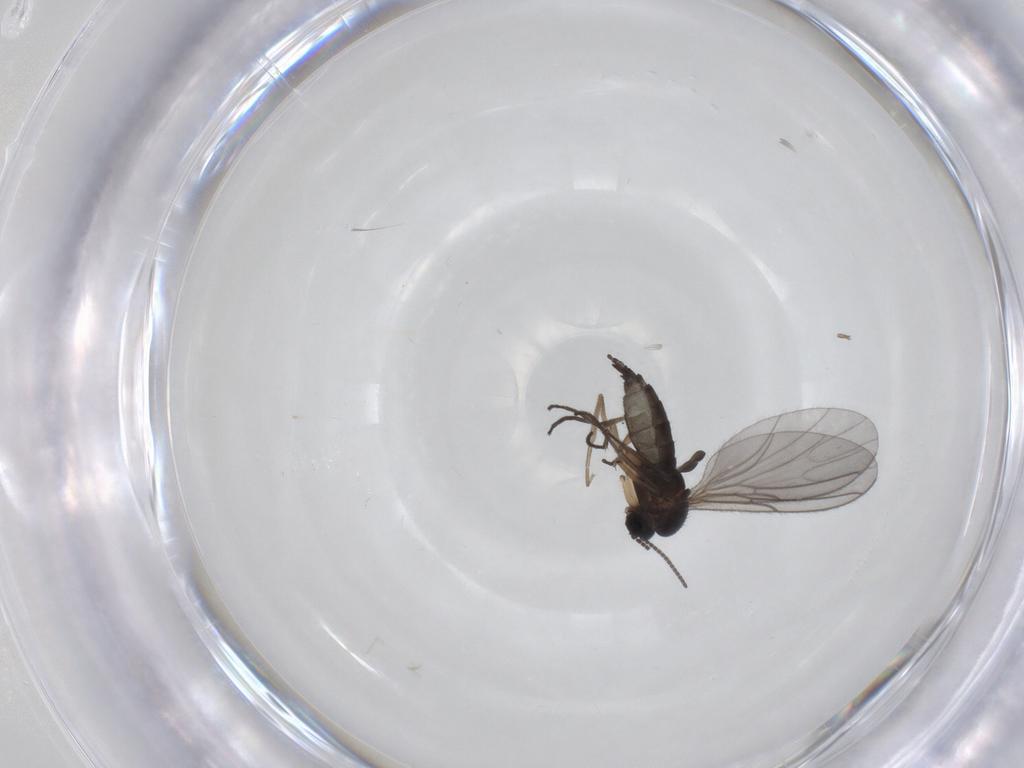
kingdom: Animalia
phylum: Arthropoda
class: Insecta
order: Diptera
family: Sciaridae
